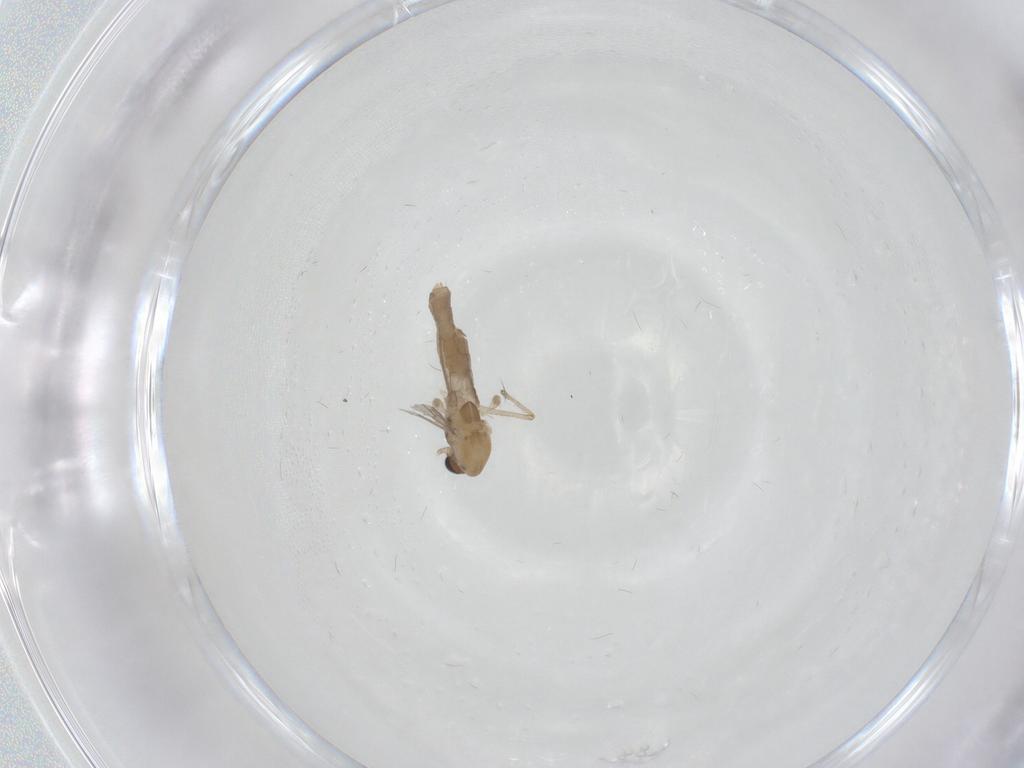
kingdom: Animalia
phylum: Arthropoda
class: Insecta
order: Diptera
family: Chironomidae
